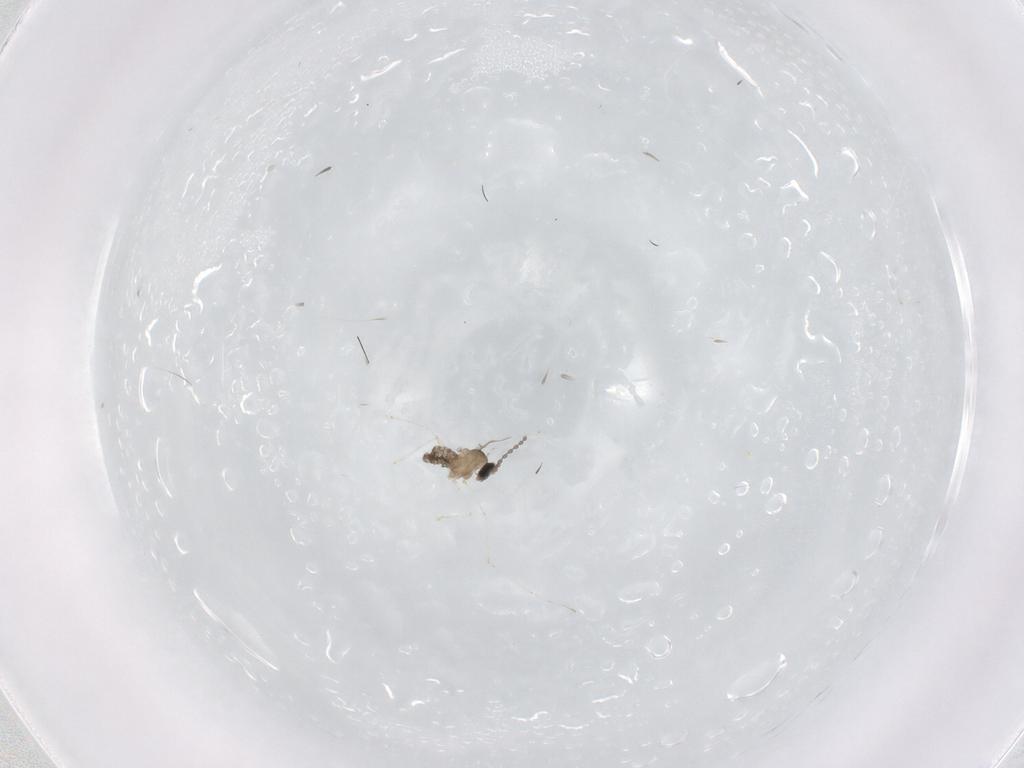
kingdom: Animalia
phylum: Arthropoda
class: Insecta
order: Diptera
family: Cecidomyiidae
